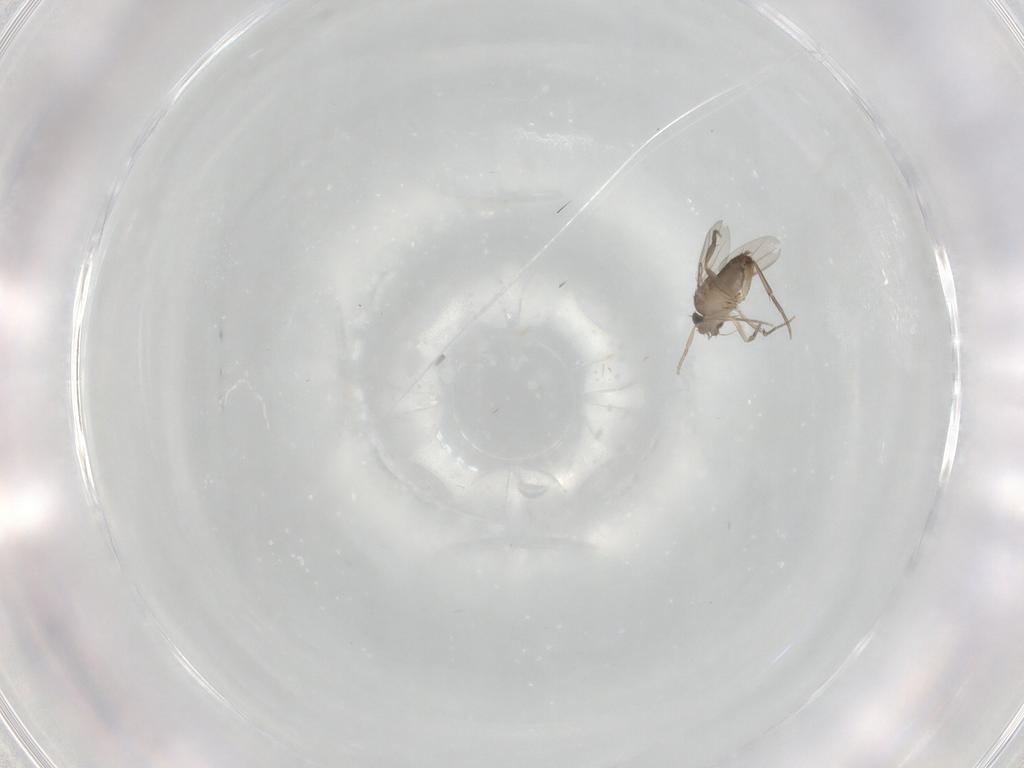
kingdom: Animalia
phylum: Arthropoda
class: Insecta
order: Diptera
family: Phoridae
